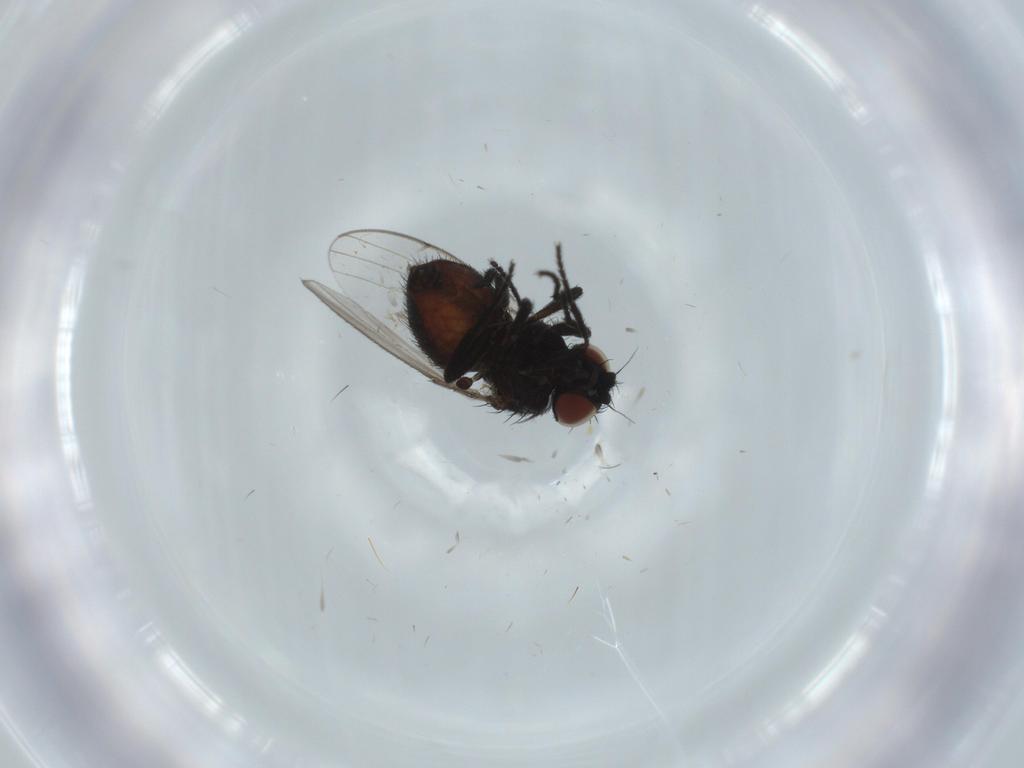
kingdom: Animalia
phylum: Arthropoda
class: Insecta
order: Diptera
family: Milichiidae
